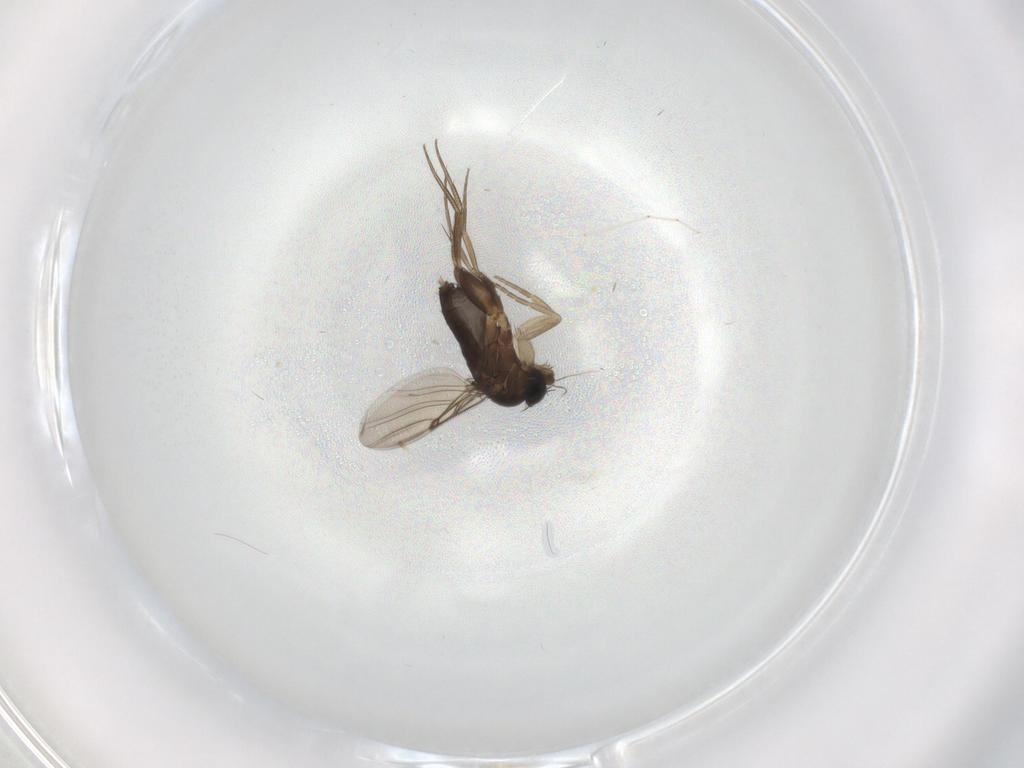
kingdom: Animalia
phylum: Arthropoda
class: Insecta
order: Diptera
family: Phoridae
